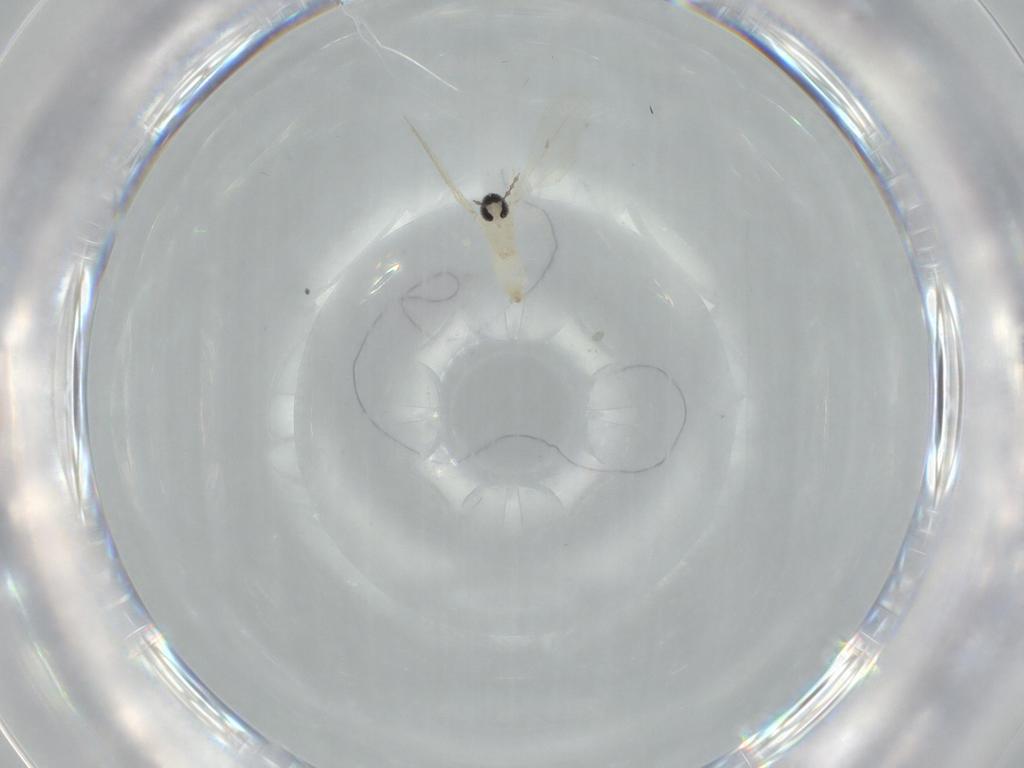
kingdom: Animalia
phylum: Arthropoda
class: Insecta
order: Diptera
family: Cecidomyiidae
